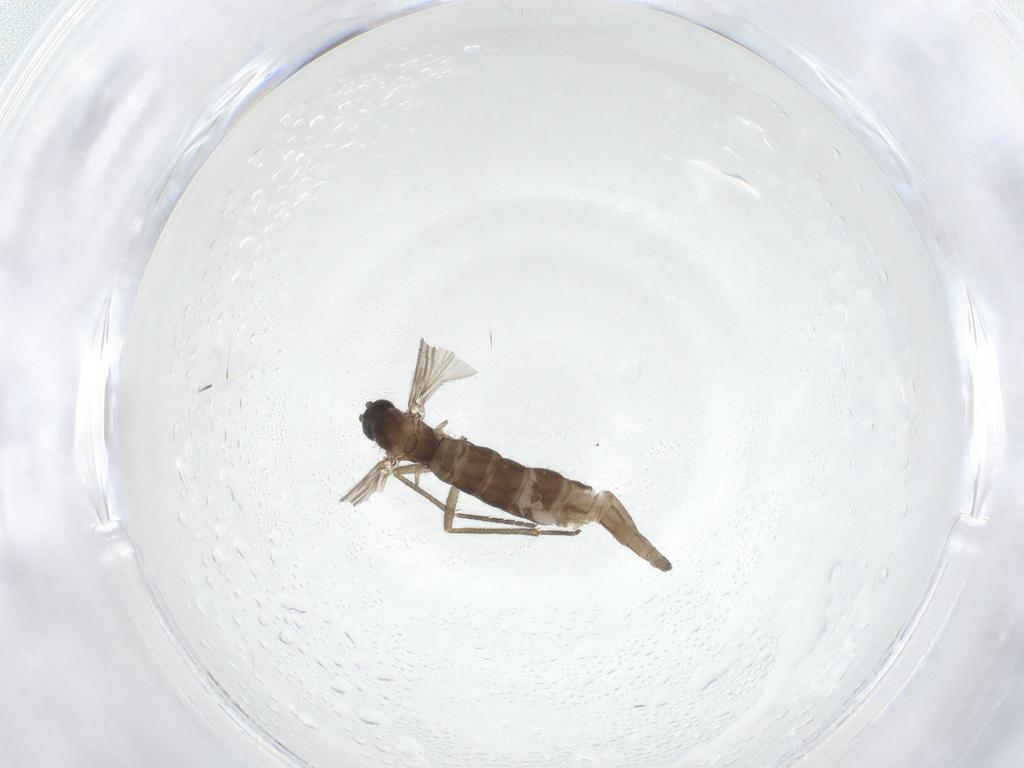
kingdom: Animalia
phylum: Arthropoda
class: Insecta
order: Diptera
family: Sciaridae
